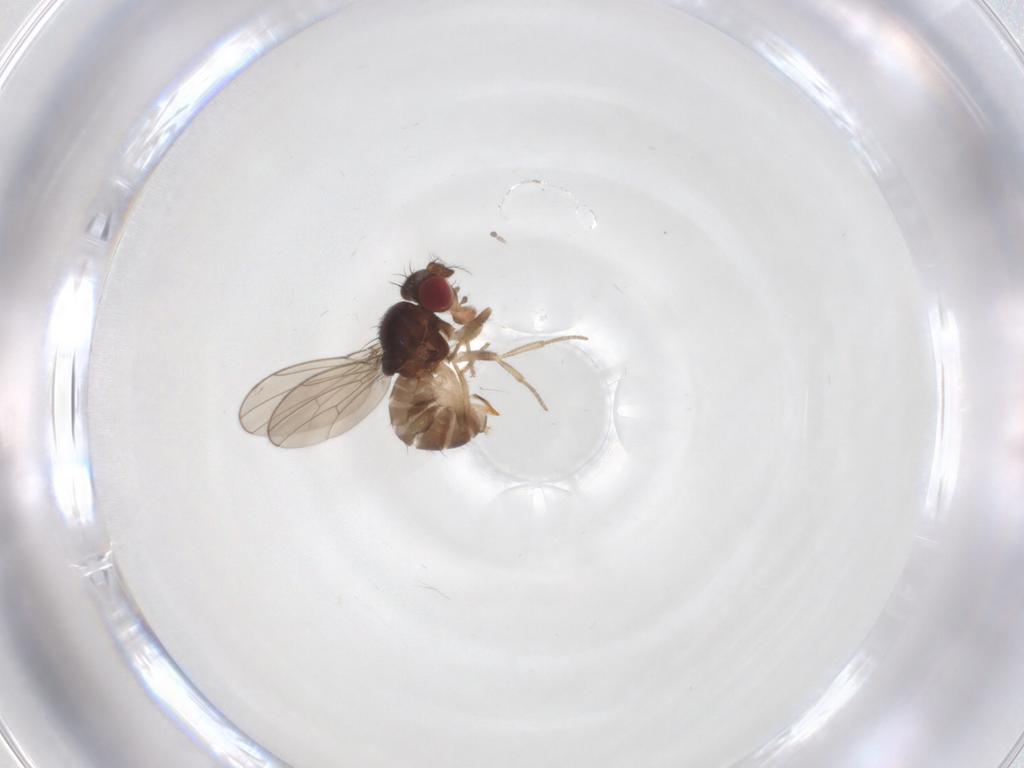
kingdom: Animalia
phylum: Arthropoda
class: Insecta
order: Diptera
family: Drosophilidae
